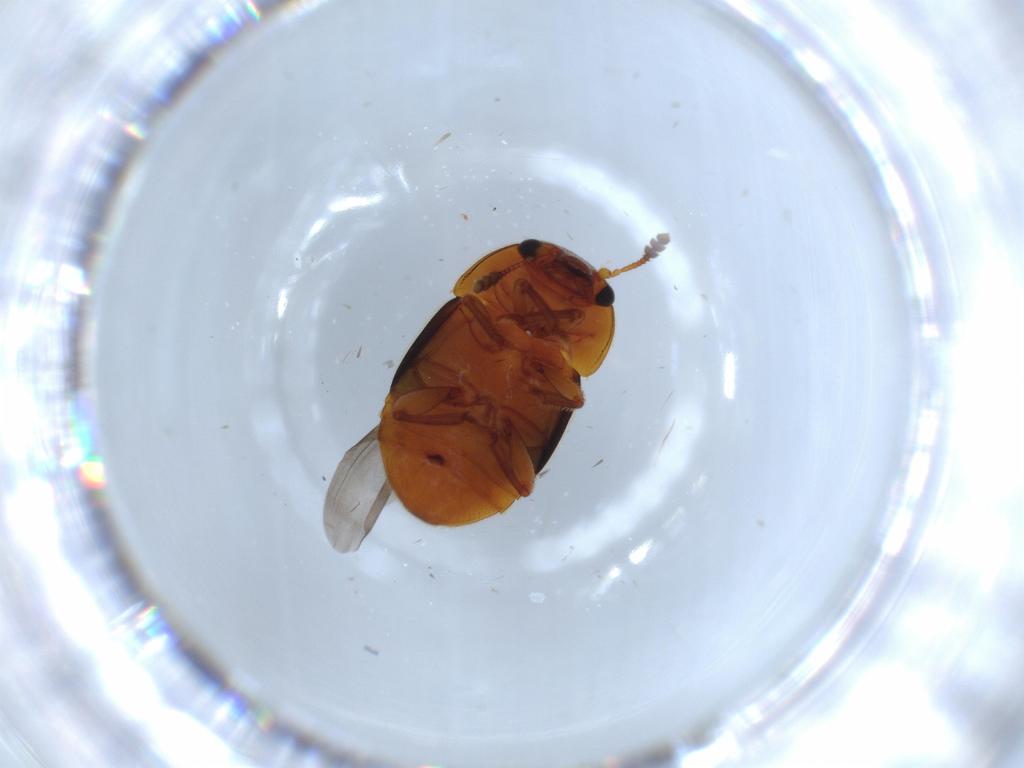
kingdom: Animalia
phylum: Arthropoda
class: Insecta
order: Coleoptera
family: Nitidulidae
